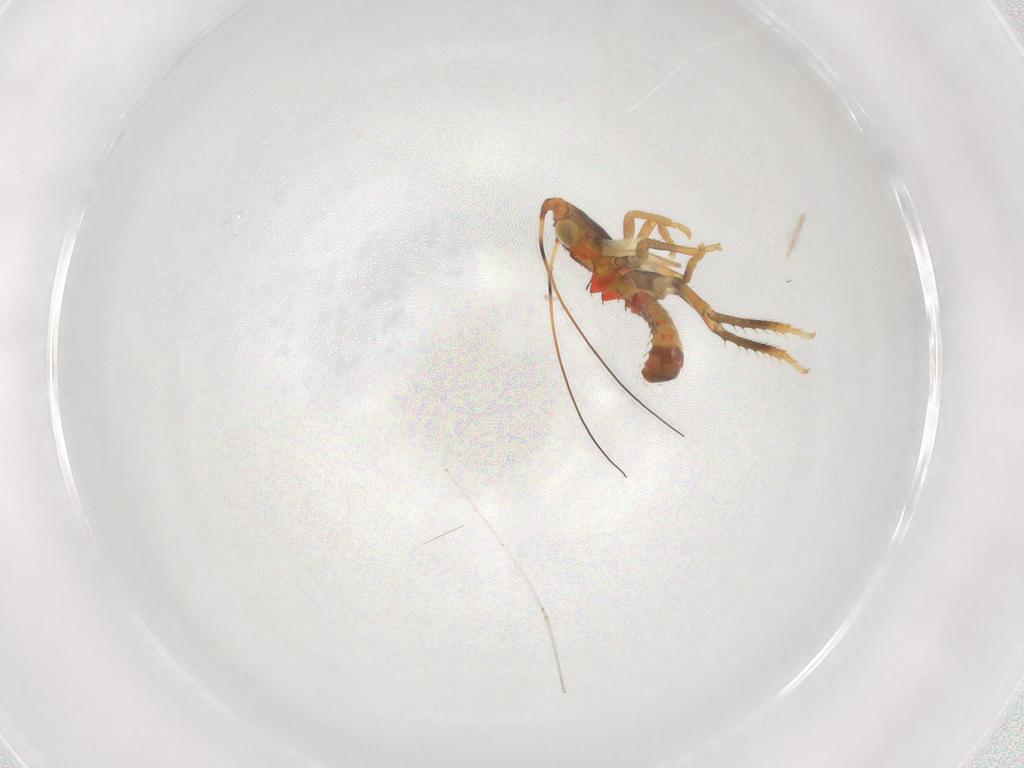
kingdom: Animalia
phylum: Arthropoda
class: Insecta
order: Hemiptera
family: Cicadellidae
